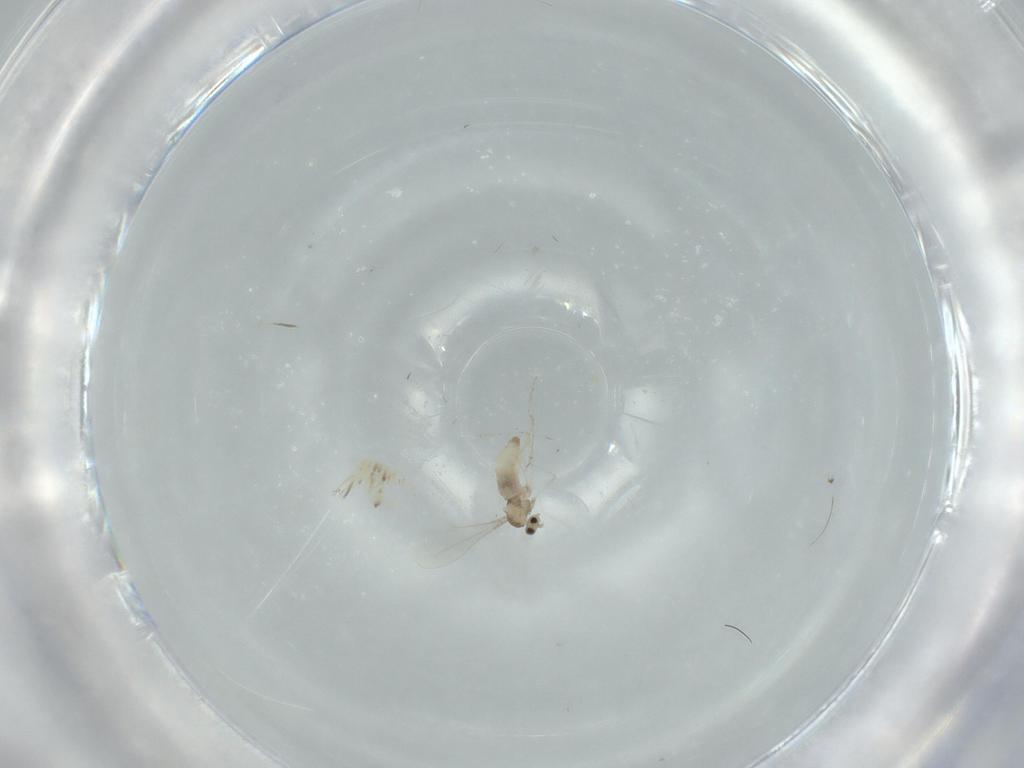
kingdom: Animalia
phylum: Arthropoda
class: Insecta
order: Diptera
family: Cecidomyiidae
